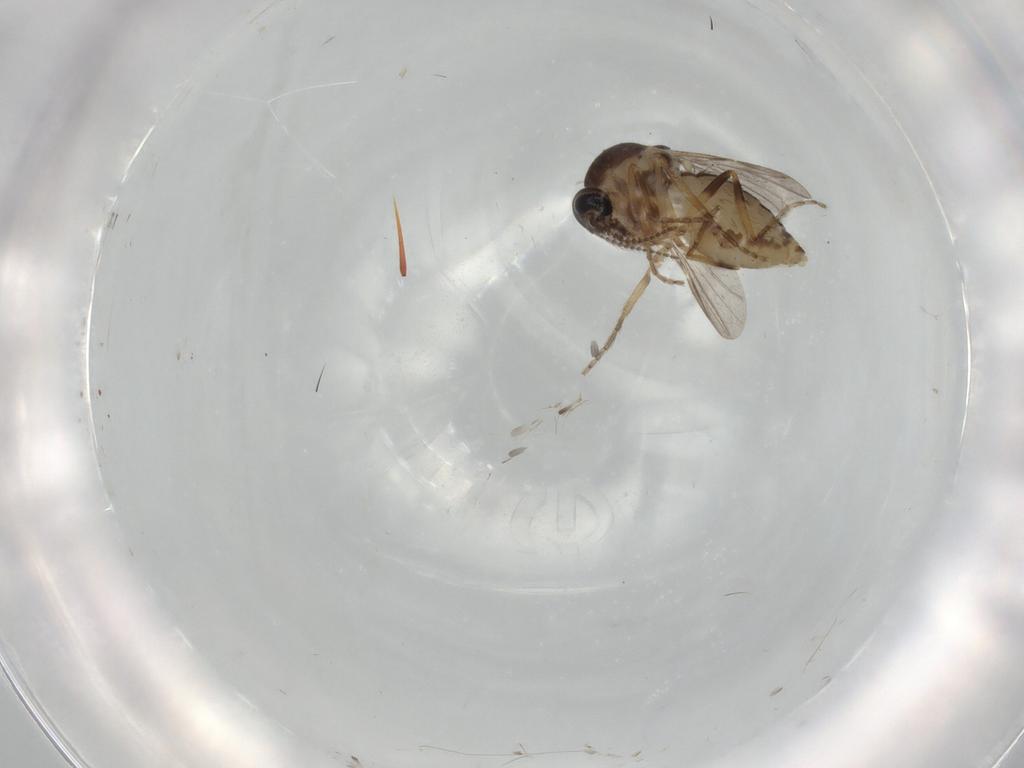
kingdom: Animalia
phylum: Arthropoda
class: Insecta
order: Diptera
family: Ceratopogonidae
